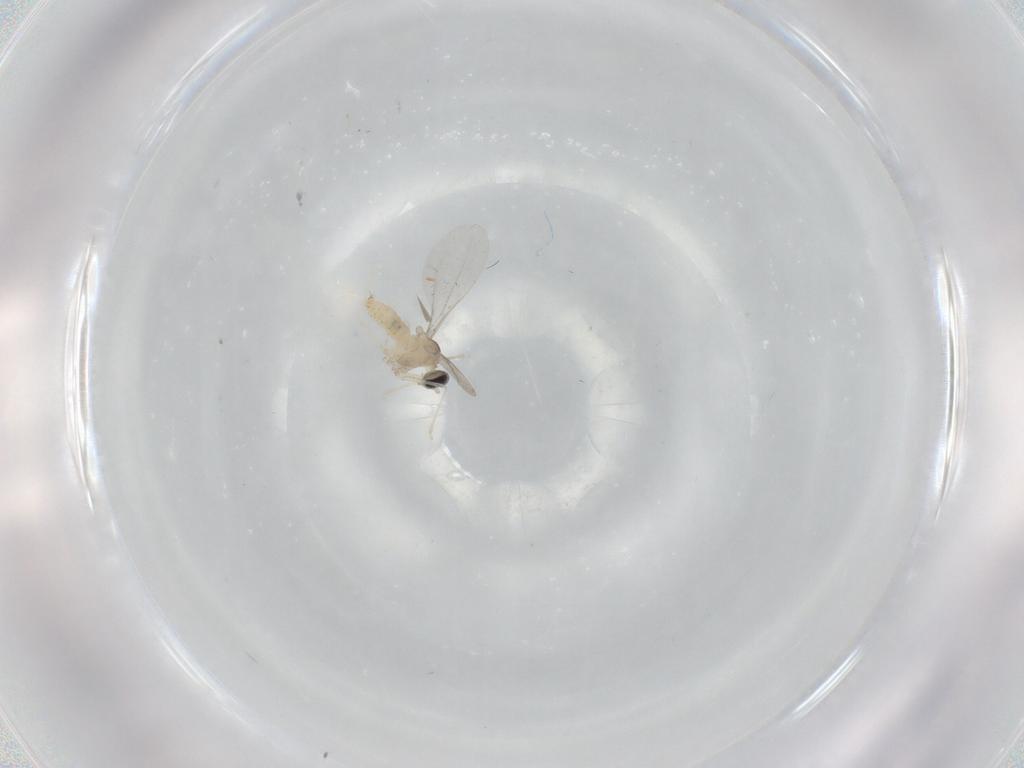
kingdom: Animalia
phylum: Arthropoda
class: Insecta
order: Diptera
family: Cecidomyiidae
